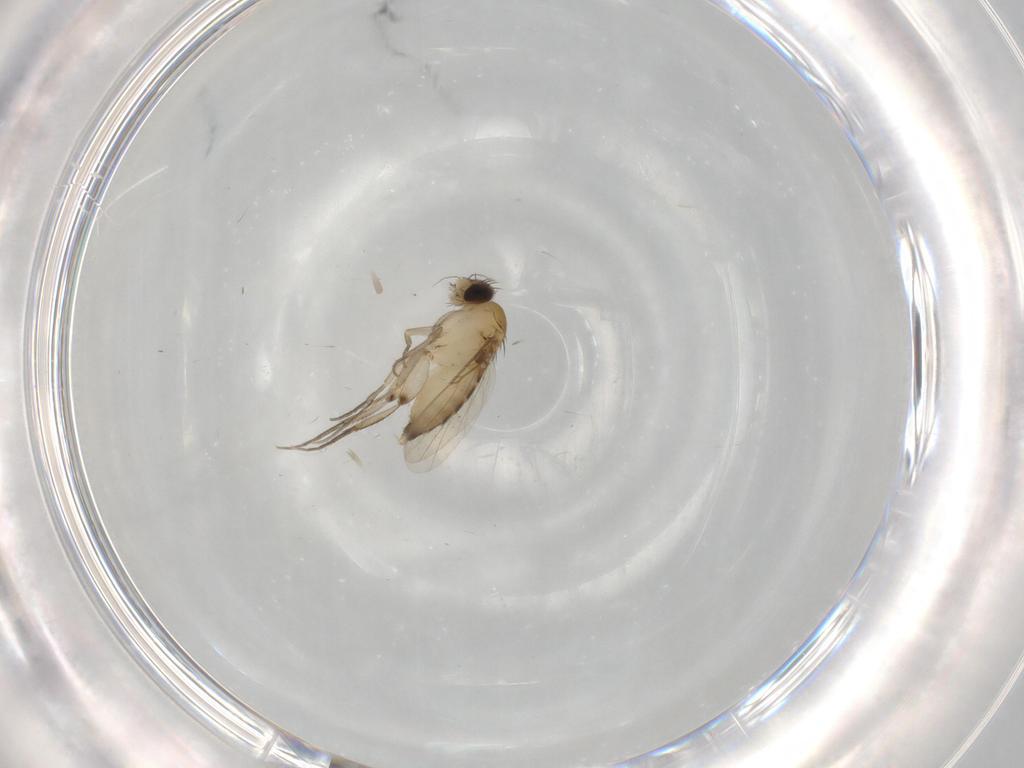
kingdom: Animalia
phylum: Arthropoda
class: Insecta
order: Diptera
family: Phoridae
